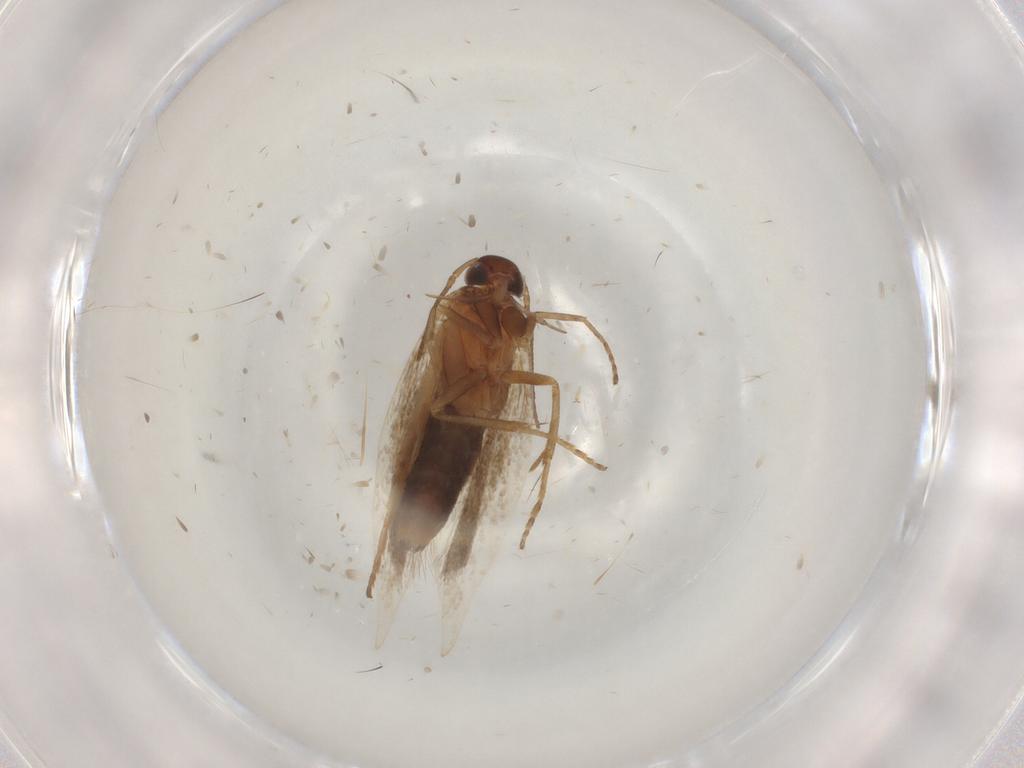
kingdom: Animalia
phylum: Arthropoda
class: Insecta
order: Lepidoptera
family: Gelechiidae
